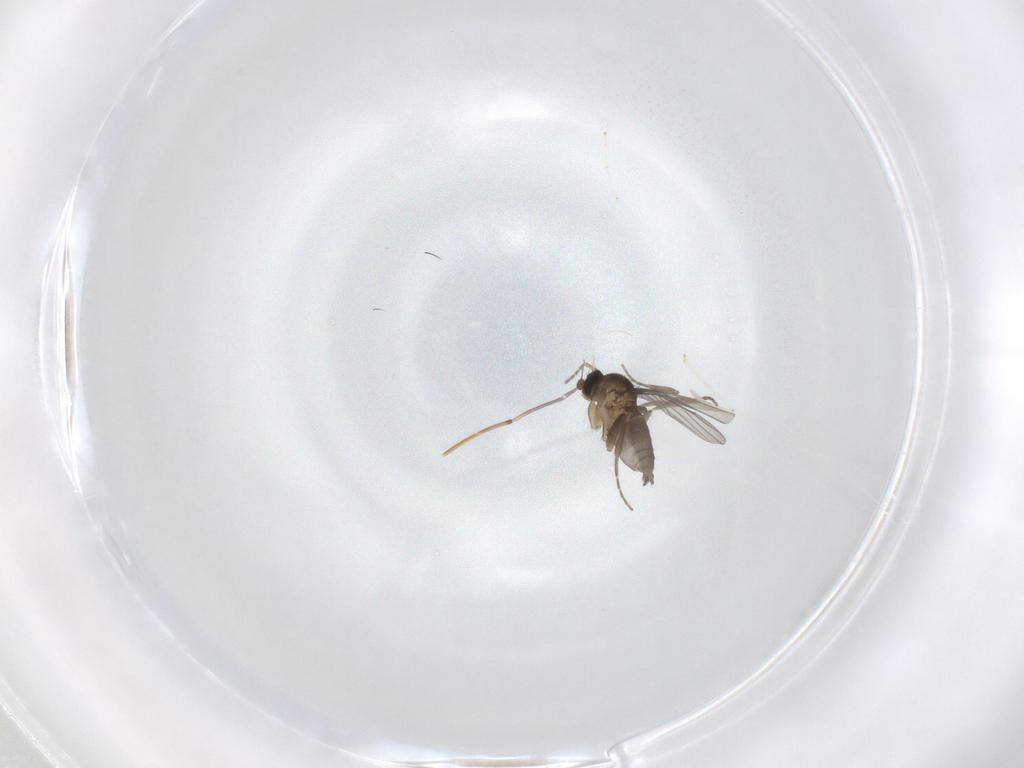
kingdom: Animalia
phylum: Arthropoda
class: Insecta
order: Diptera
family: Cecidomyiidae
